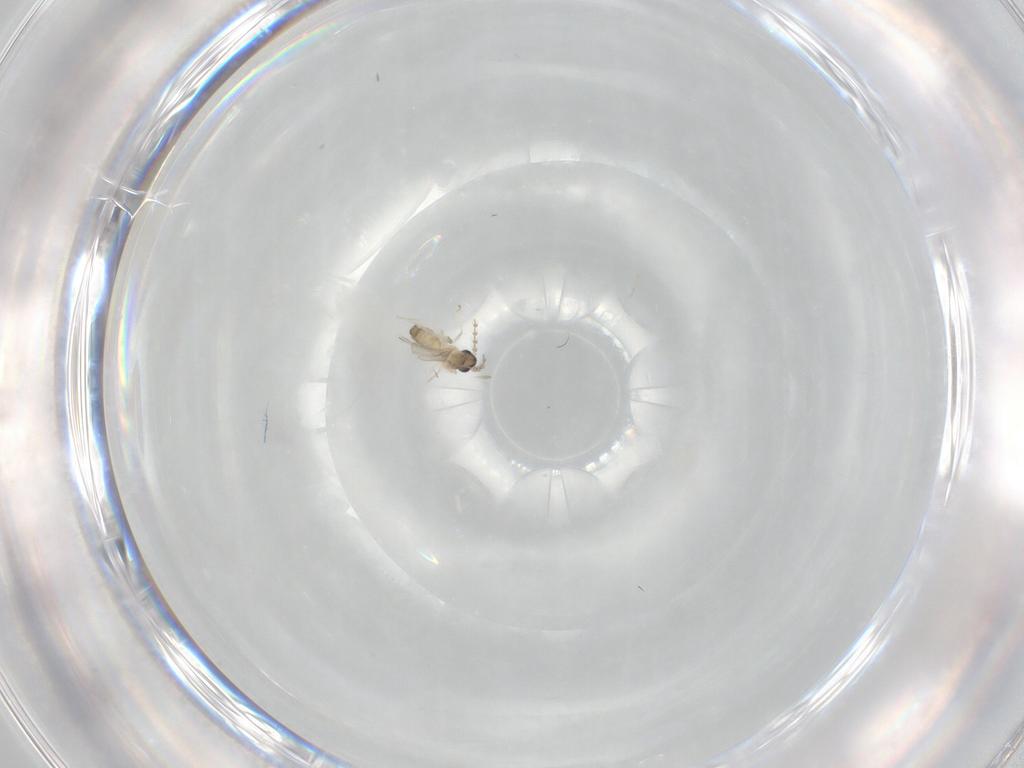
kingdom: Animalia
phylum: Arthropoda
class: Insecta
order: Diptera
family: Cecidomyiidae
